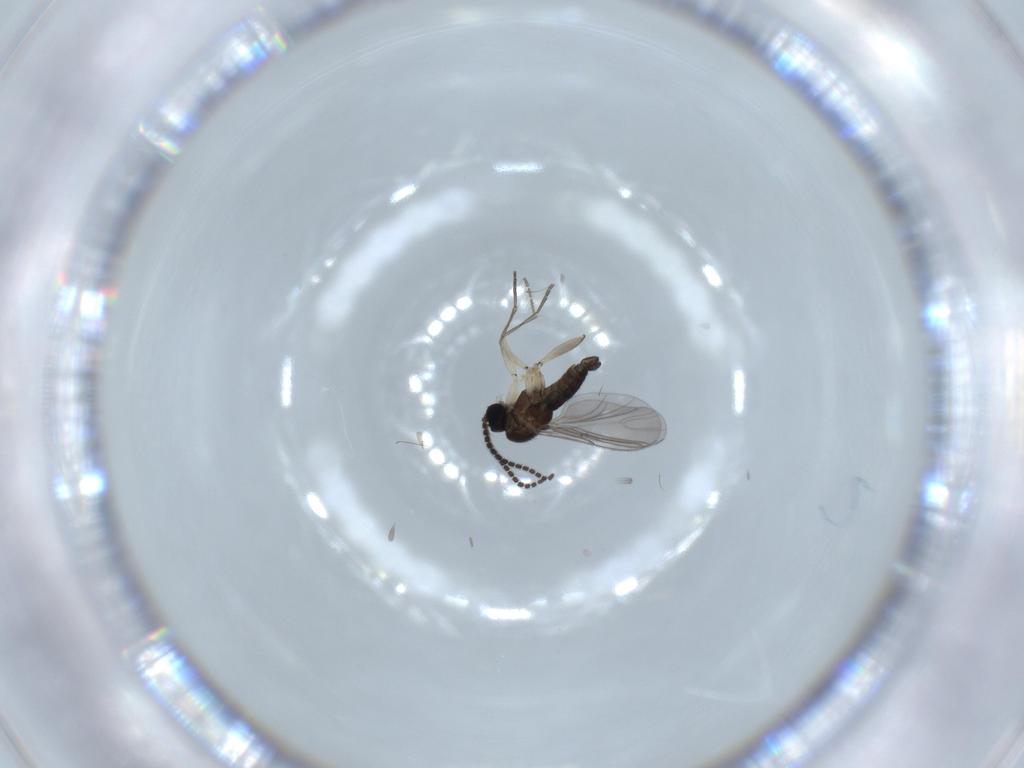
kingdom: Animalia
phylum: Arthropoda
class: Insecta
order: Diptera
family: Sciaridae
